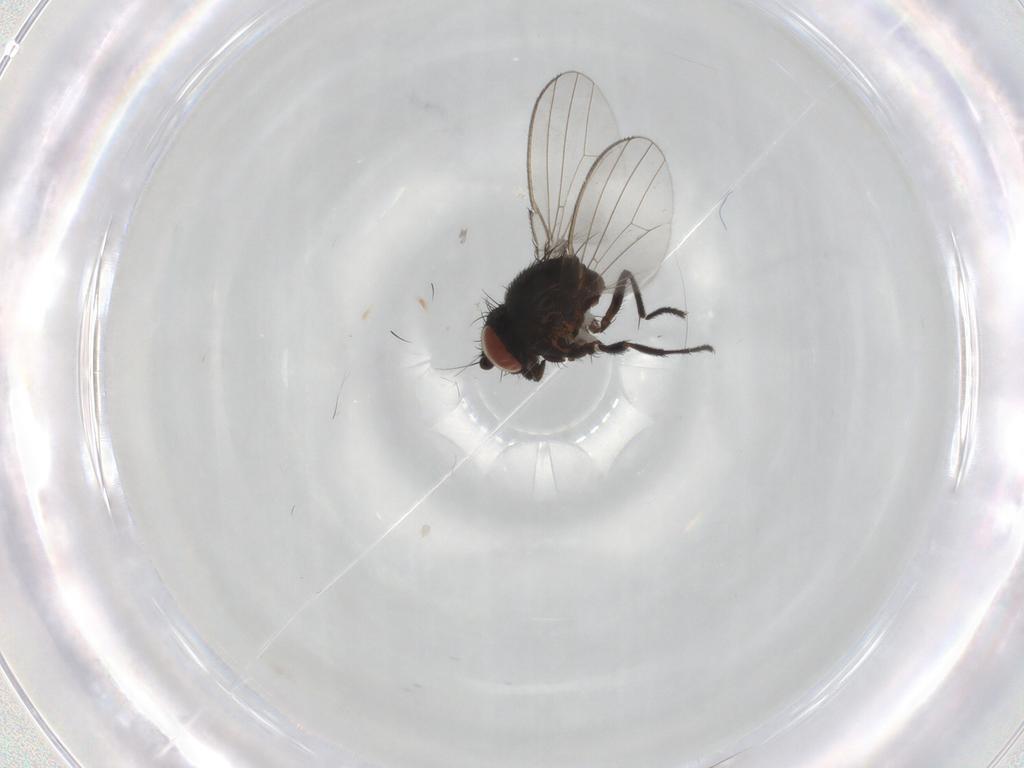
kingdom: Animalia
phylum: Arthropoda
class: Insecta
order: Diptera
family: Milichiidae
